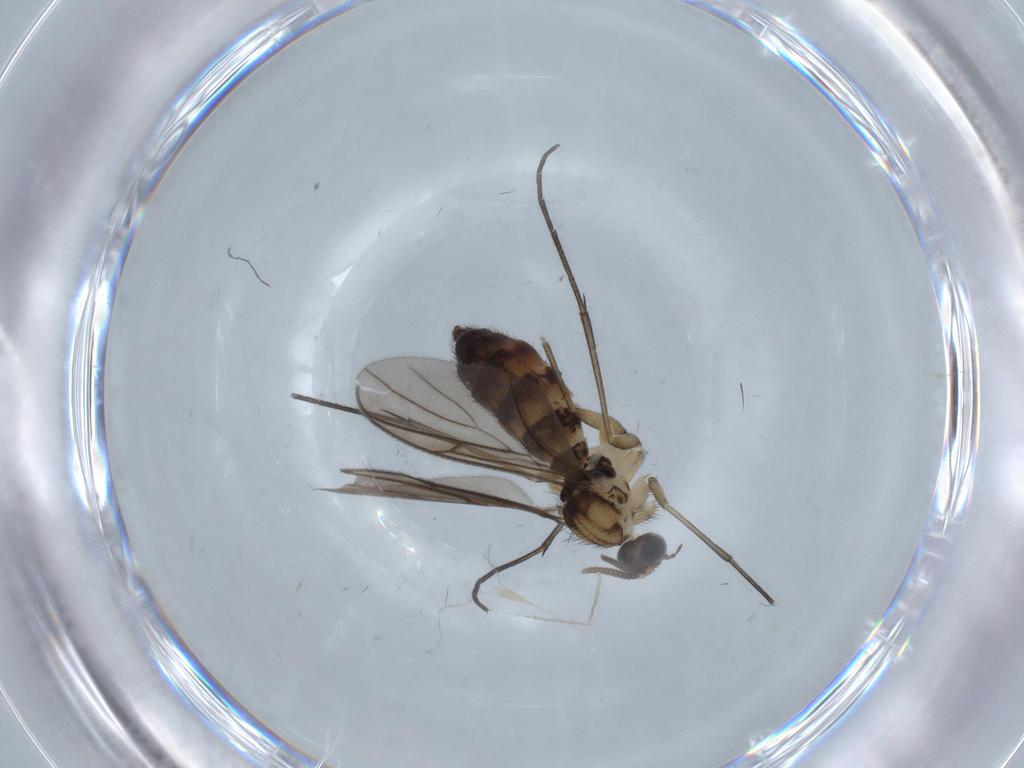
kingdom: Animalia
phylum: Arthropoda
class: Insecta
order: Diptera
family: Keroplatidae
